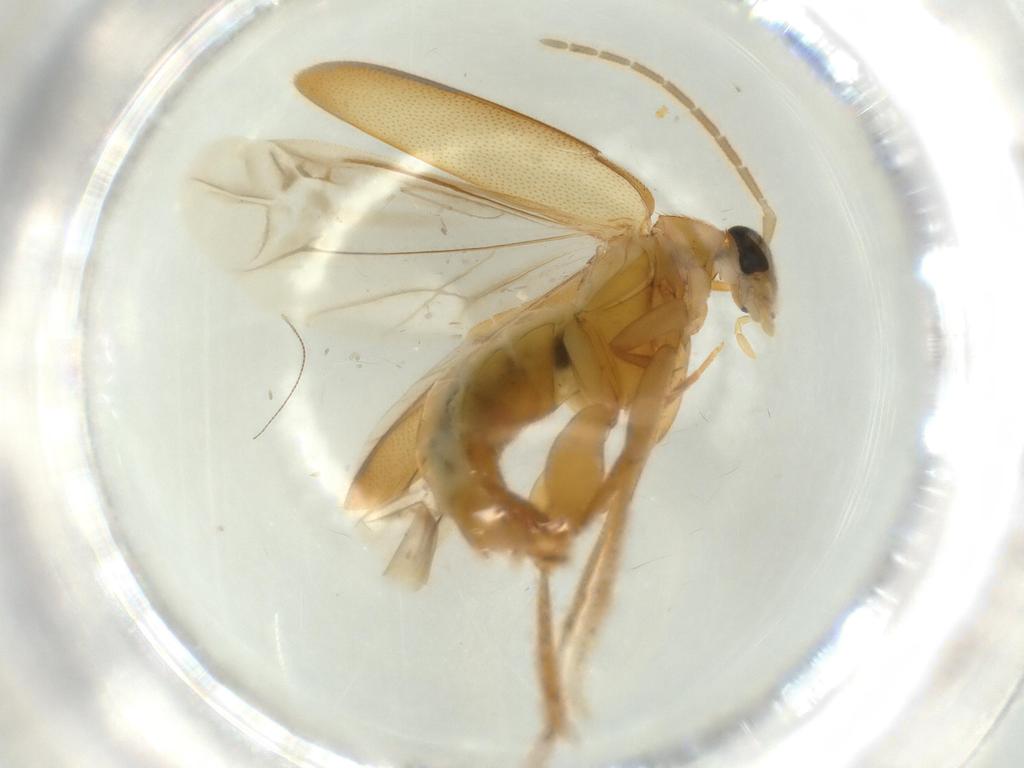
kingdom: Animalia
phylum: Arthropoda
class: Insecta
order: Coleoptera
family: Scraptiidae
